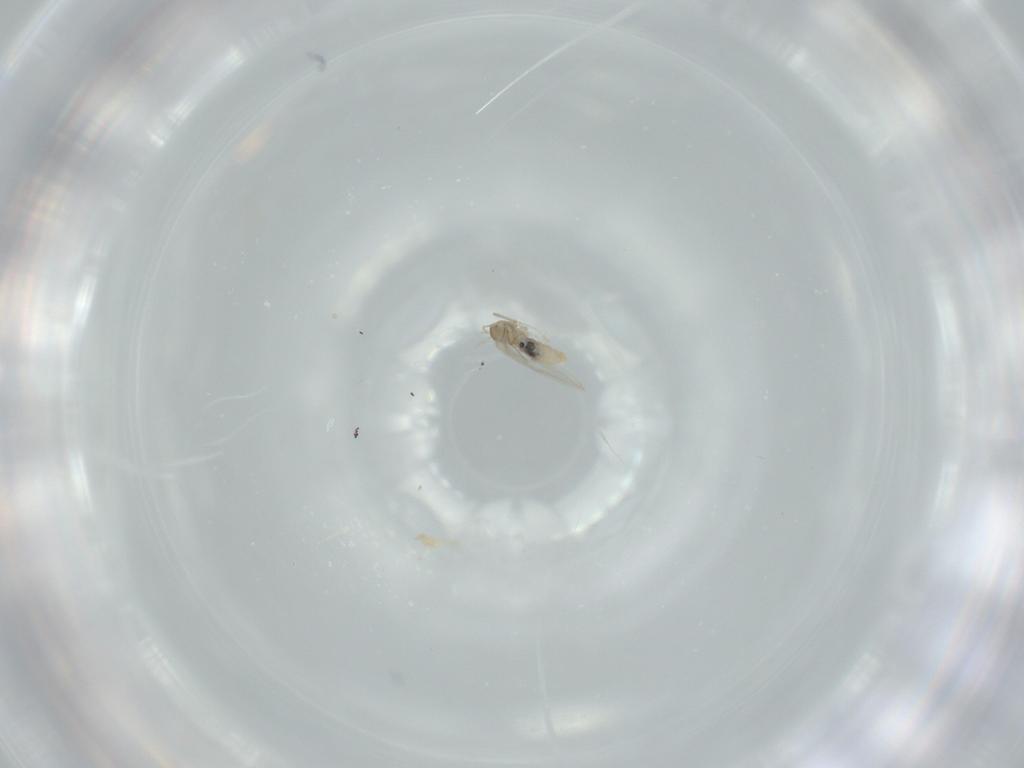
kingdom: Animalia
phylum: Arthropoda
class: Insecta
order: Diptera
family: Cecidomyiidae
